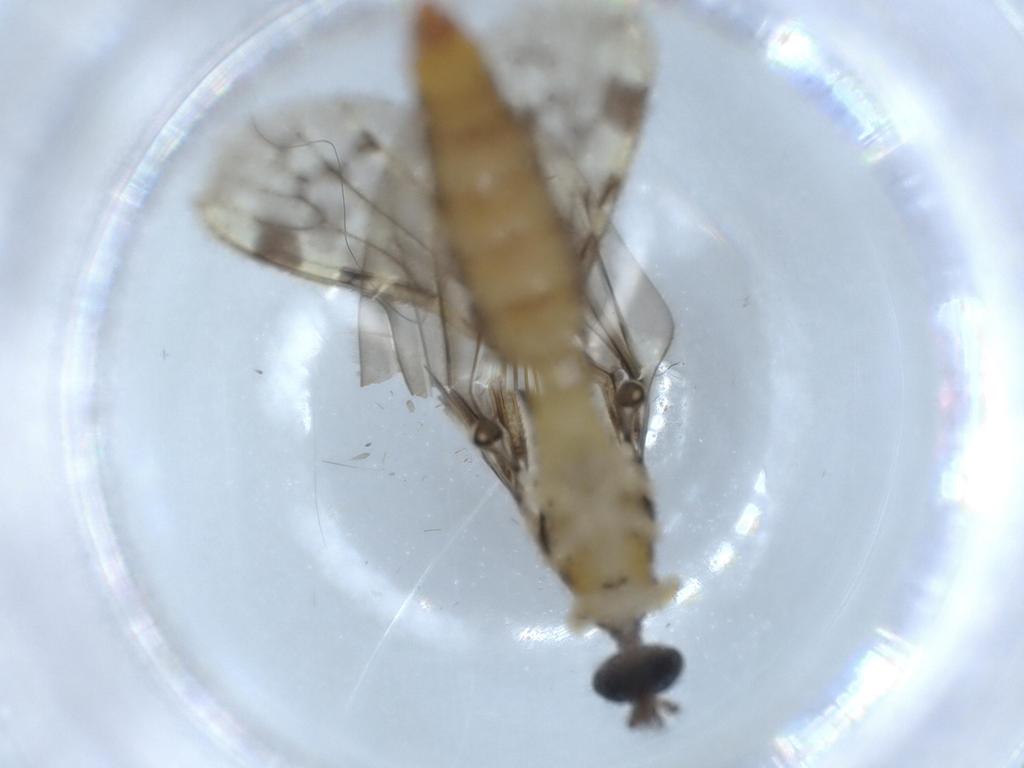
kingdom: Animalia
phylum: Arthropoda
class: Insecta
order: Diptera
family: Limoniidae
